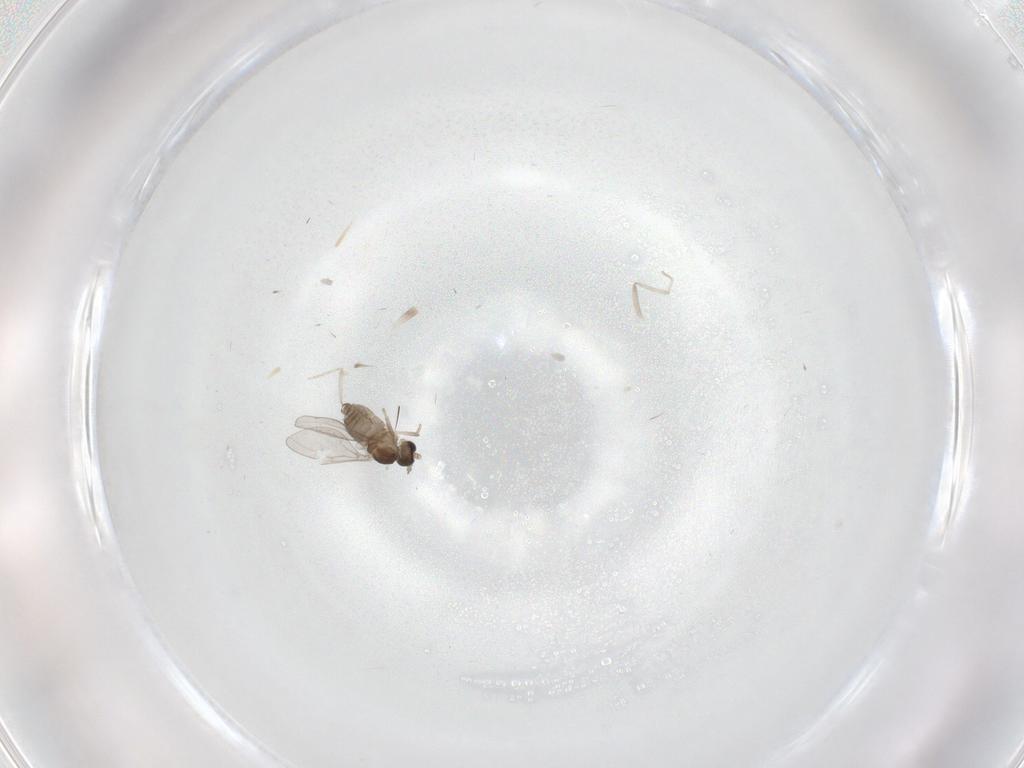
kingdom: Animalia
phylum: Arthropoda
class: Insecta
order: Diptera
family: Cecidomyiidae
